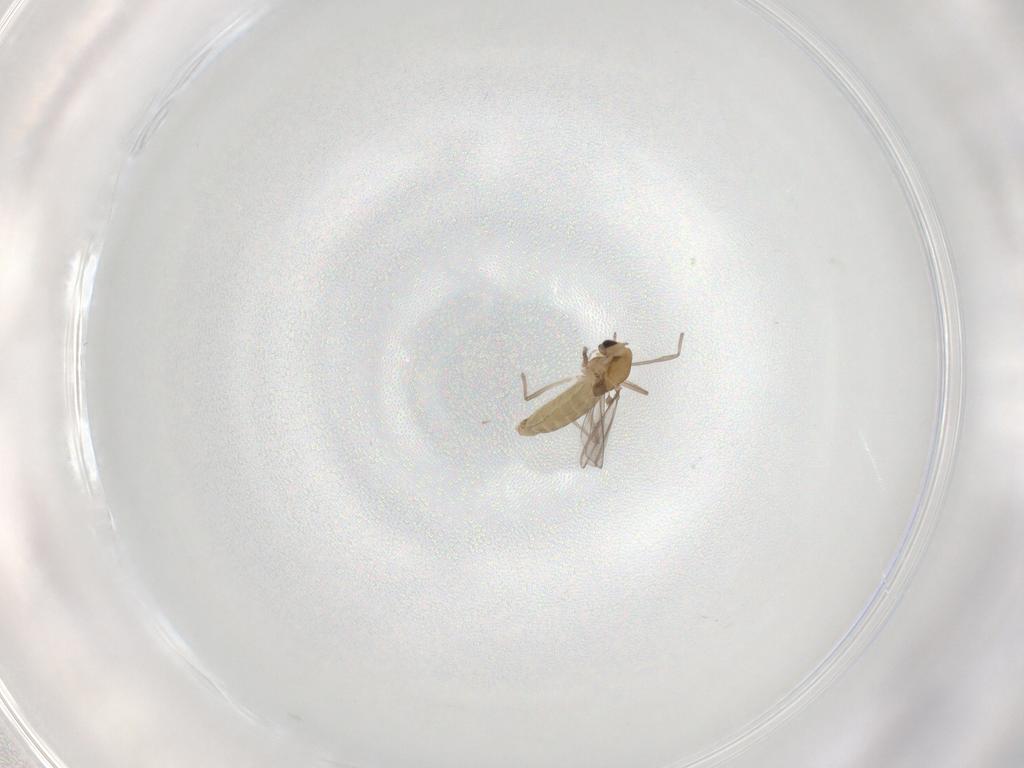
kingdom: Animalia
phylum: Arthropoda
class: Insecta
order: Diptera
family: Chironomidae
